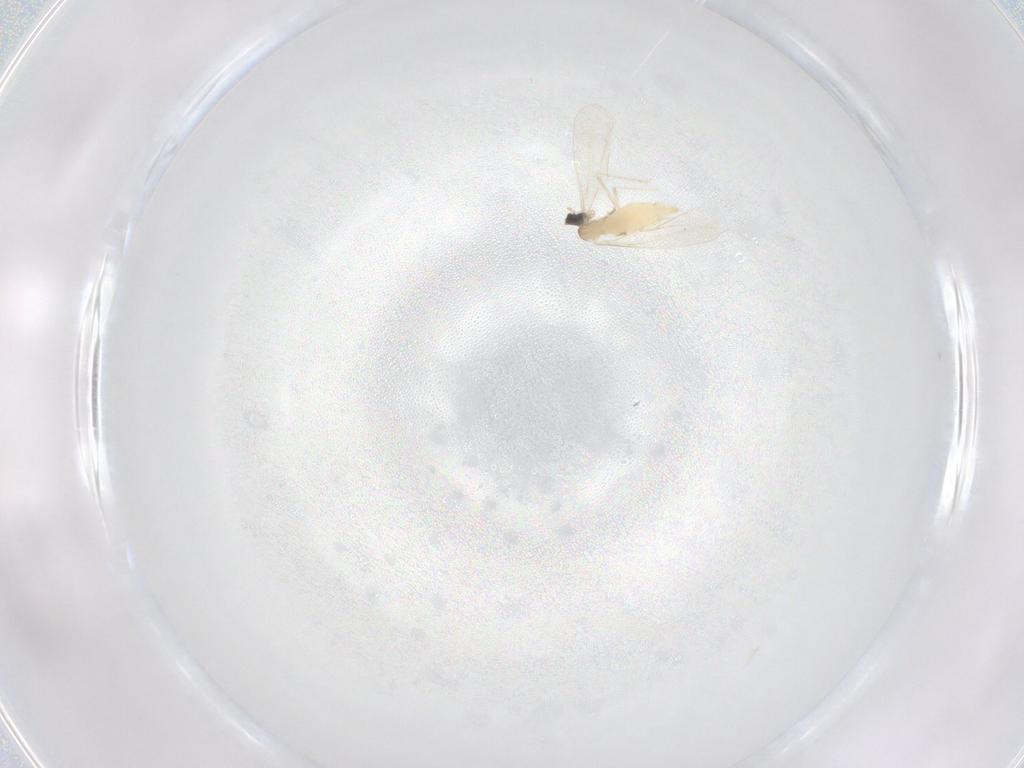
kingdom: Animalia
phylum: Arthropoda
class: Insecta
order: Diptera
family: Cecidomyiidae
